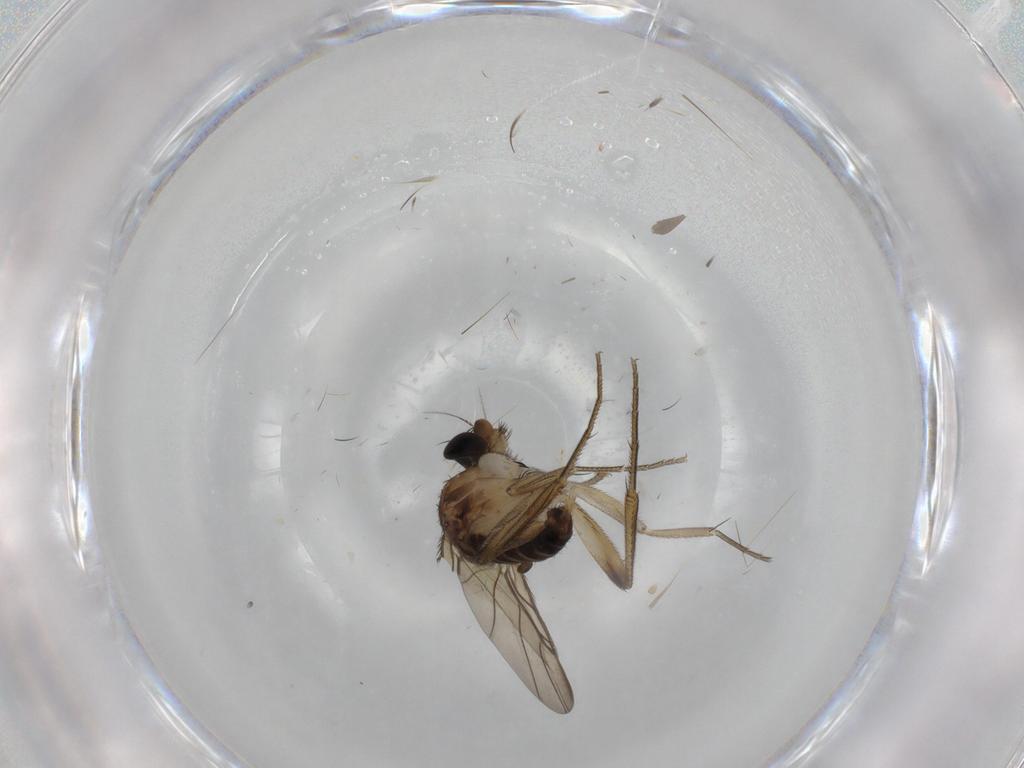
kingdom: Animalia
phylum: Arthropoda
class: Insecta
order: Diptera
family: Phoridae
